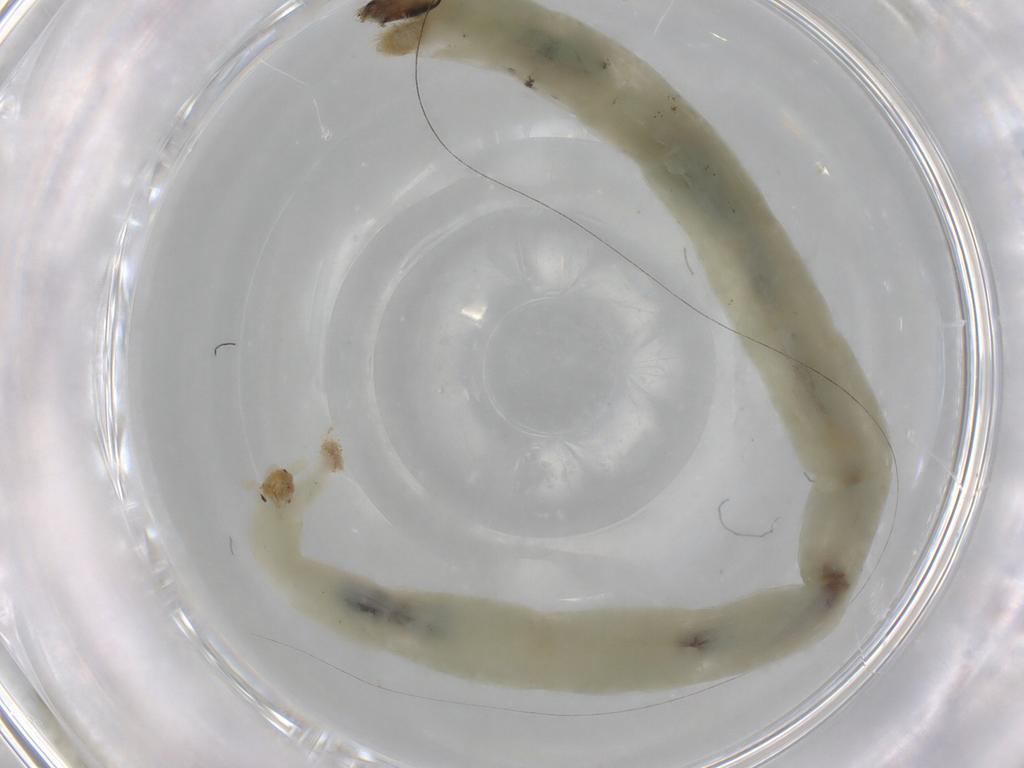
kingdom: Animalia
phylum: Arthropoda
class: Insecta
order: Diptera
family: Chironomidae
